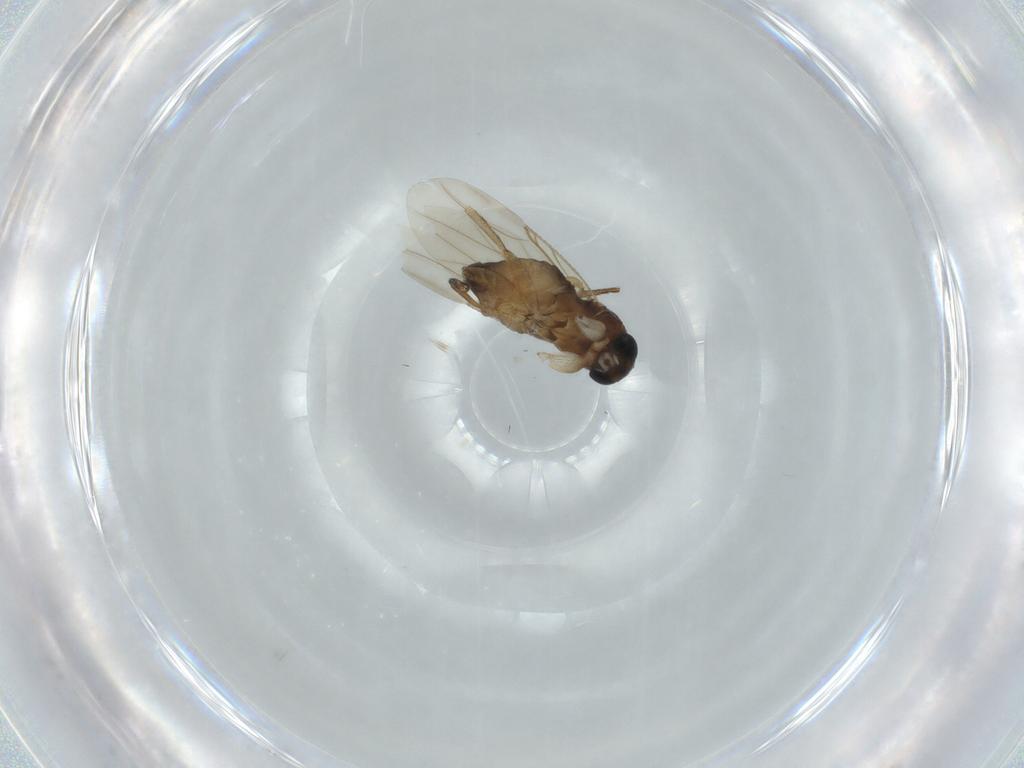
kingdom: Animalia
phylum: Arthropoda
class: Insecta
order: Diptera
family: Phoridae
